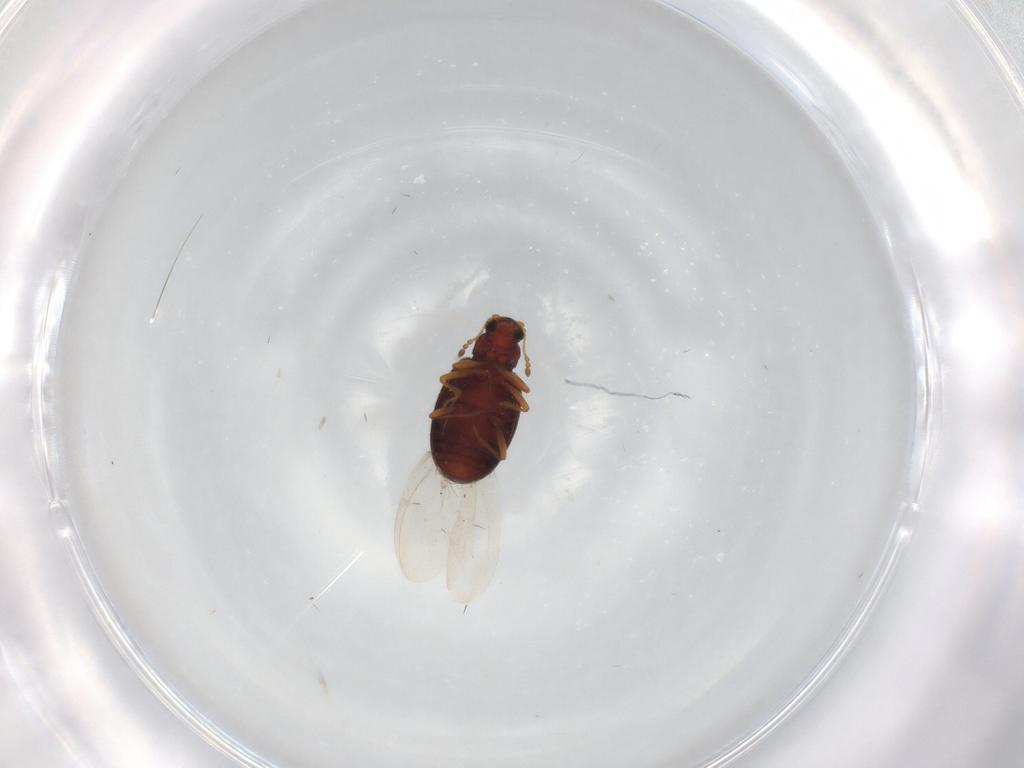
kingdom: Animalia
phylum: Arthropoda
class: Insecta
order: Coleoptera
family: Latridiidae
